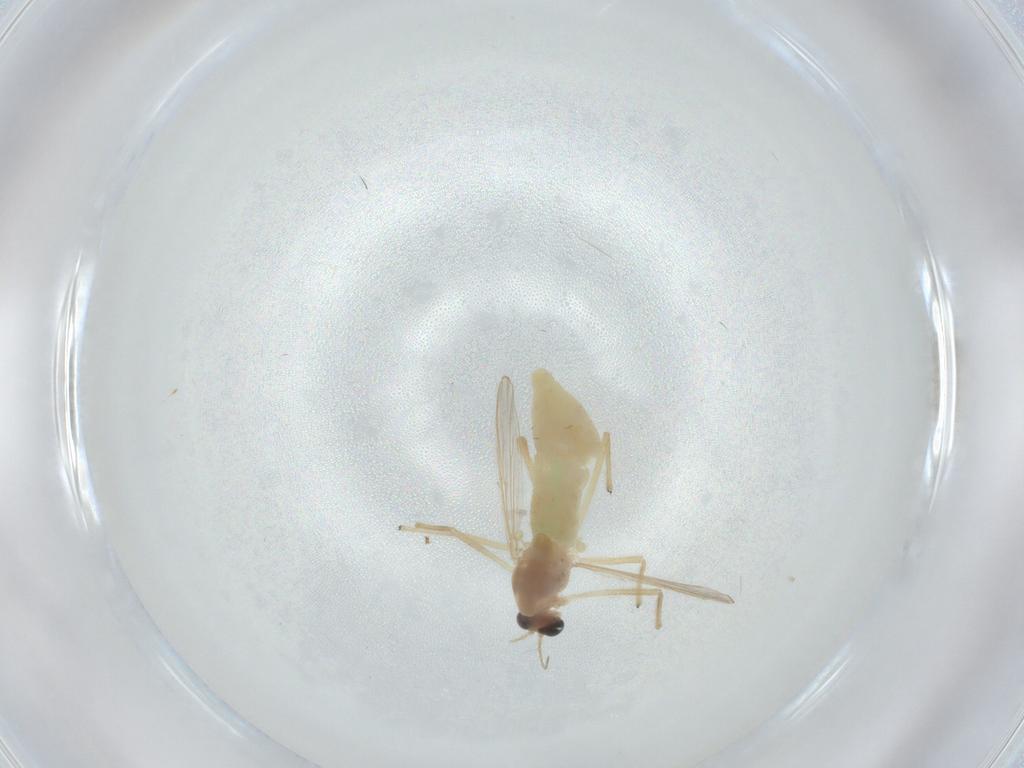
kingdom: Animalia
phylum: Arthropoda
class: Insecta
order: Diptera
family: Chironomidae
